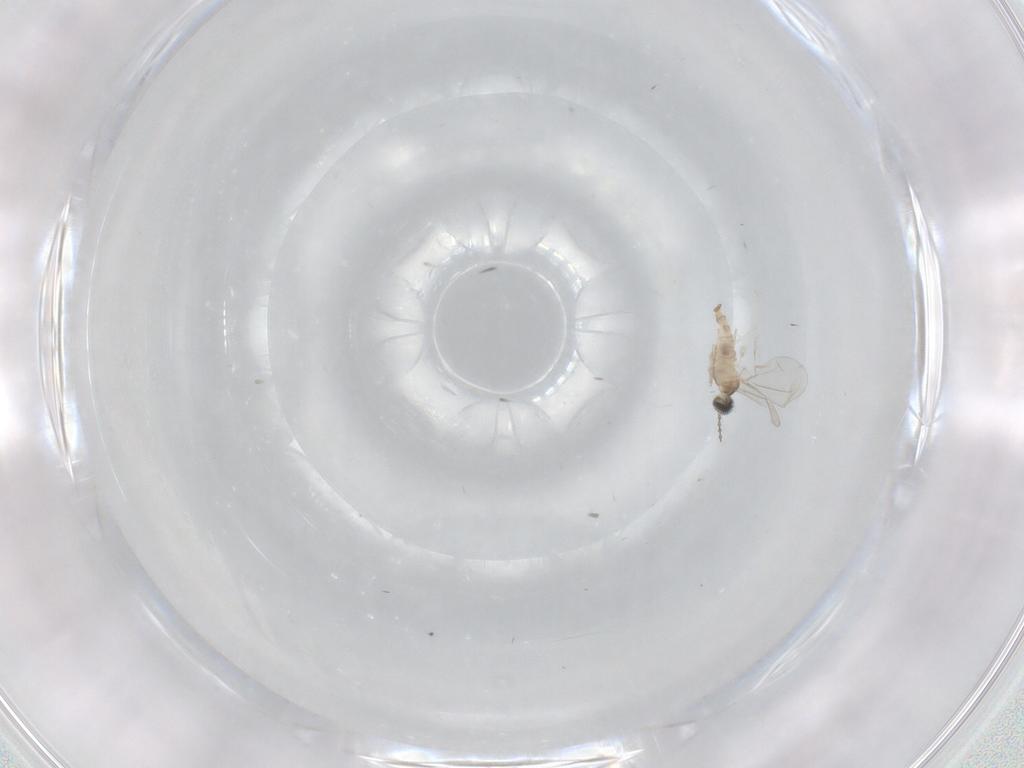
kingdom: Animalia
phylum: Arthropoda
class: Insecta
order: Diptera
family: Cecidomyiidae
